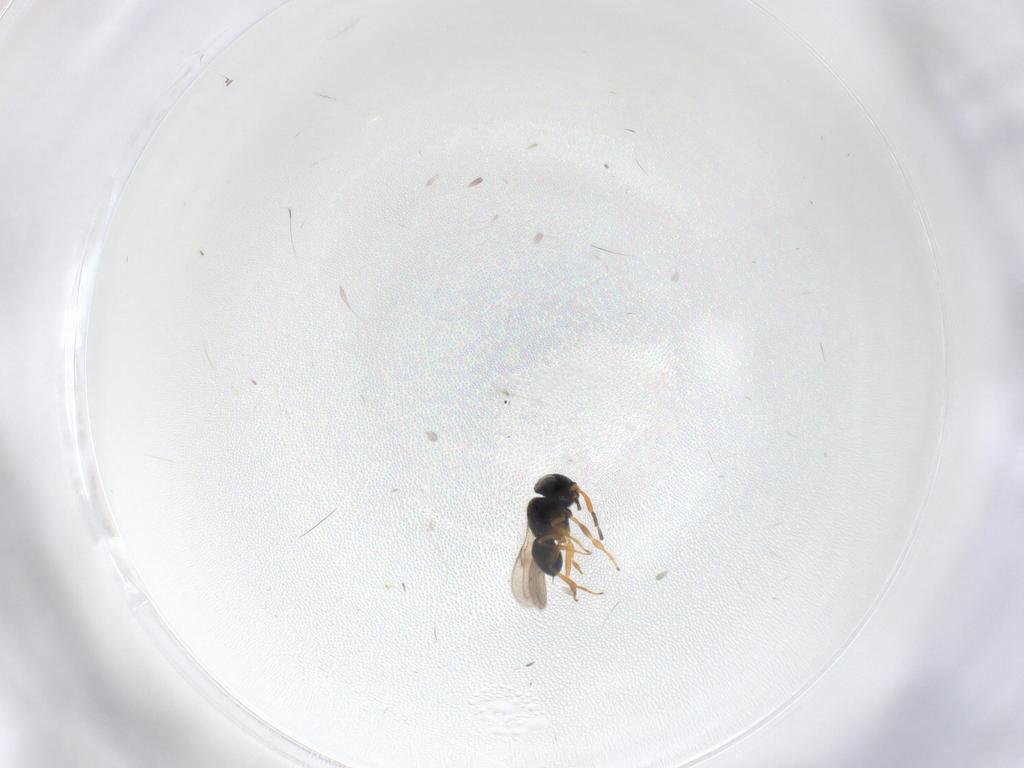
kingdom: Animalia
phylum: Arthropoda
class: Insecta
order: Hymenoptera
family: Scelionidae
